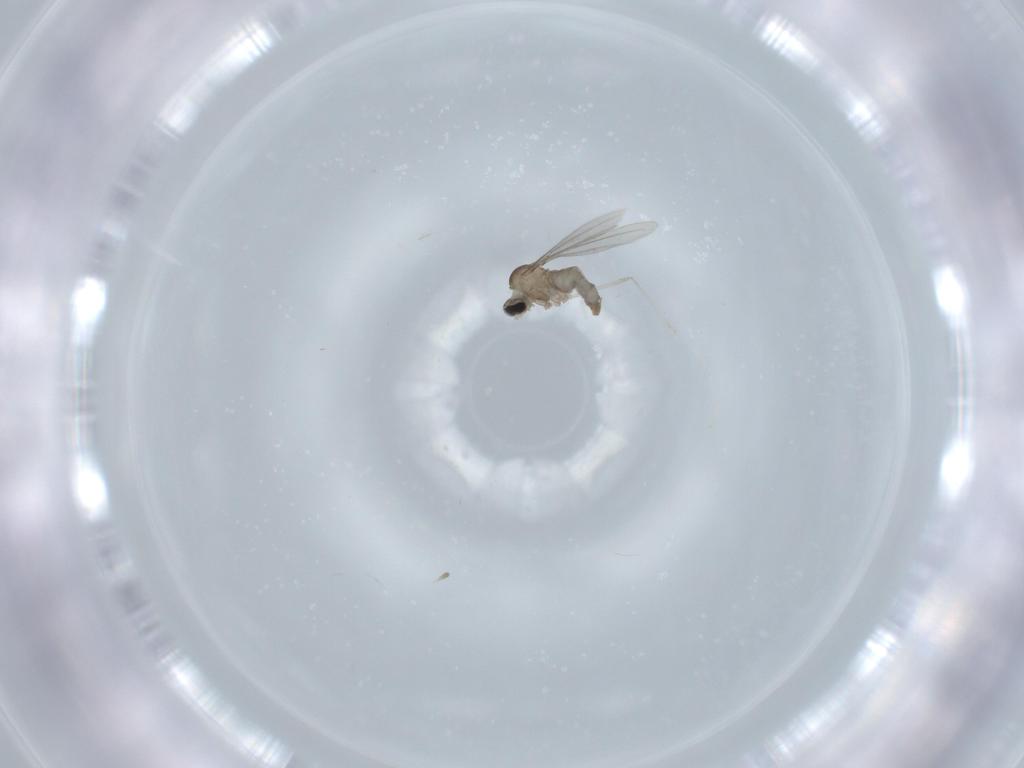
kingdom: Animalia
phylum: Arthropoda
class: Insecta
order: Diptera
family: Cecidomyiidae
